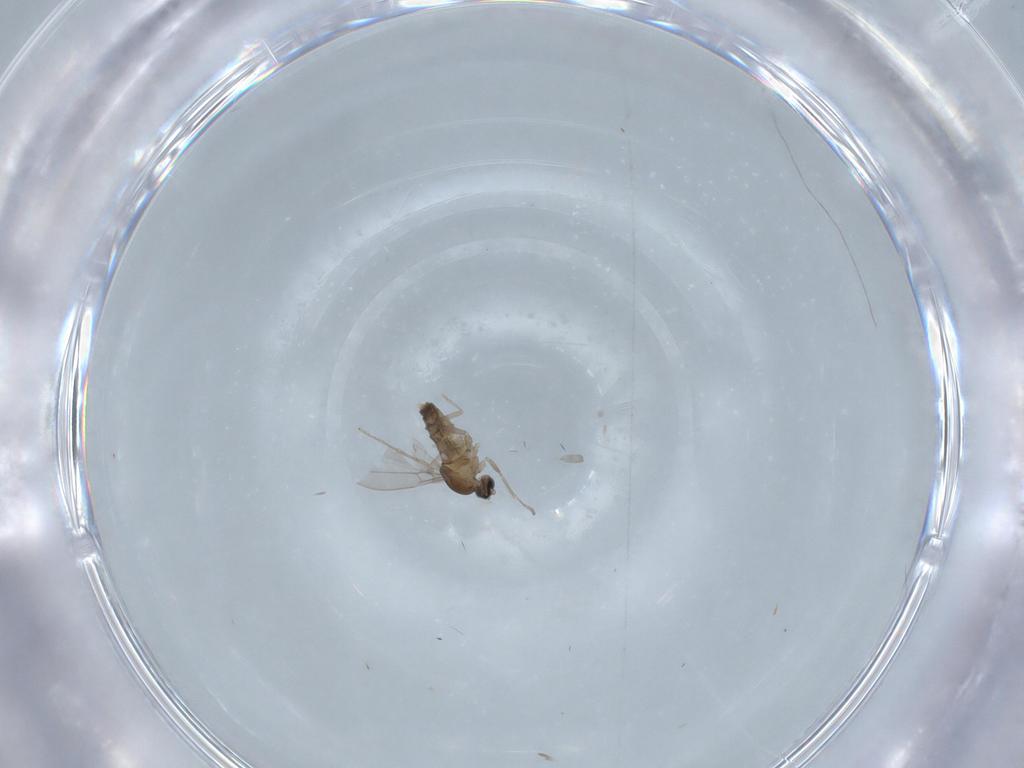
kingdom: Animalia
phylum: Arthropoda
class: Insecta
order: Diptera
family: Cecidomyiidae
